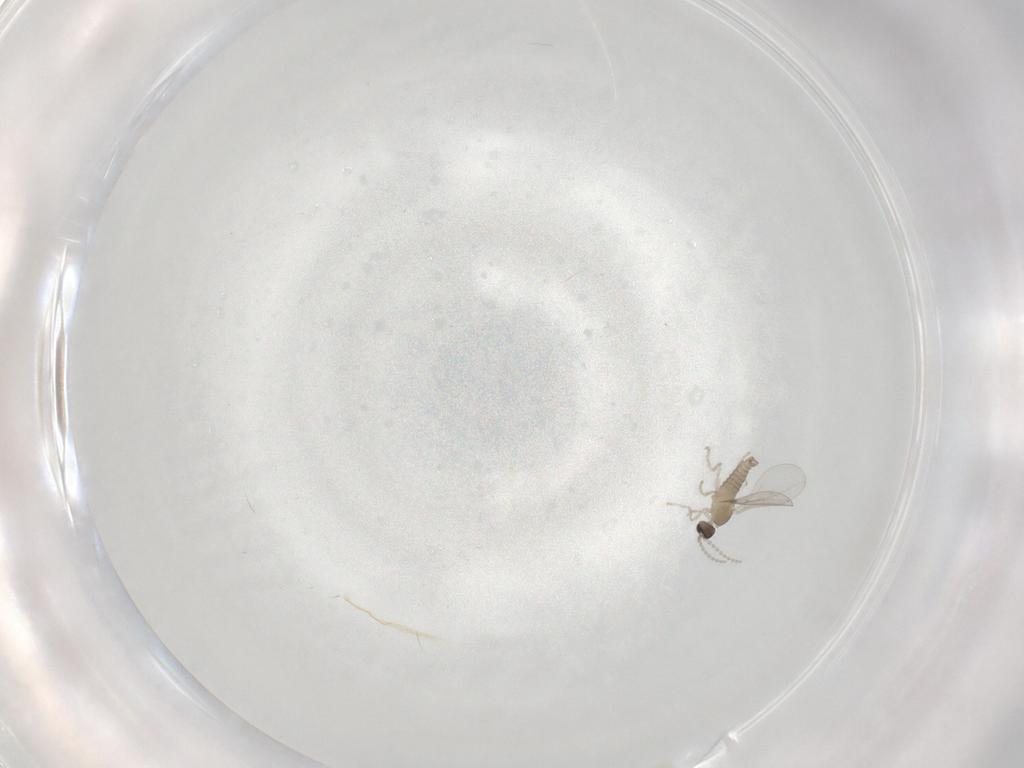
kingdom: Animalia
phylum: Arthropoda
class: Insecta
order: Diptera
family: Cecidomyiidae
